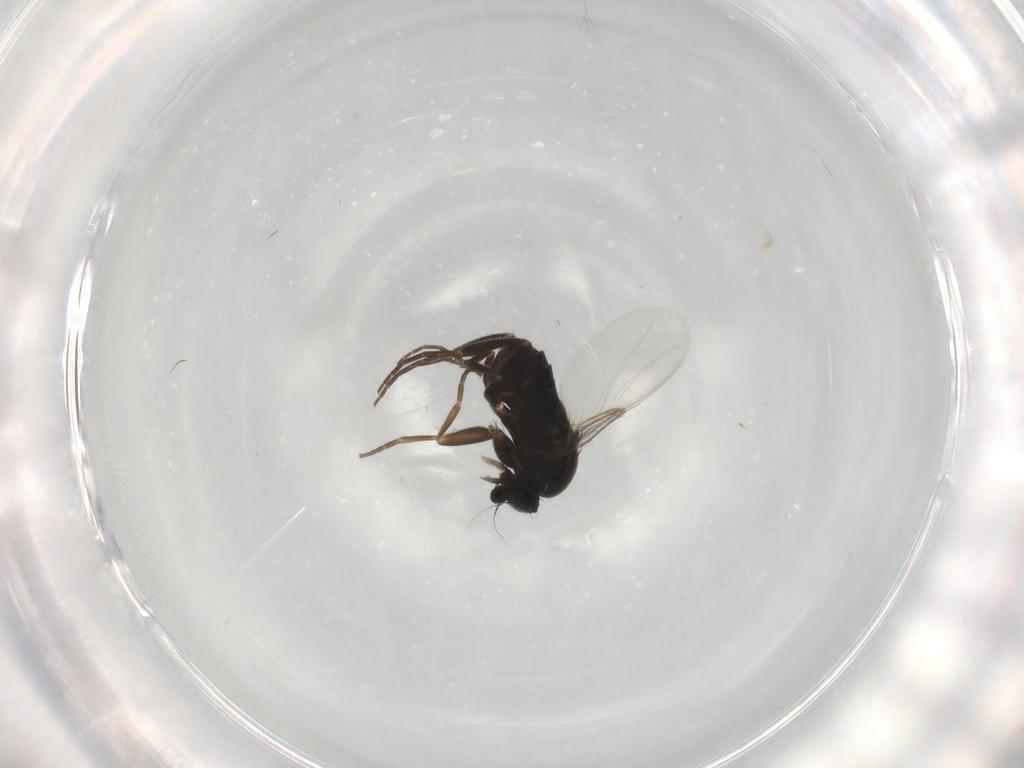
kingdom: Animalia
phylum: Arthropoda
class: Insecta
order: Diptera
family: Phoridae
